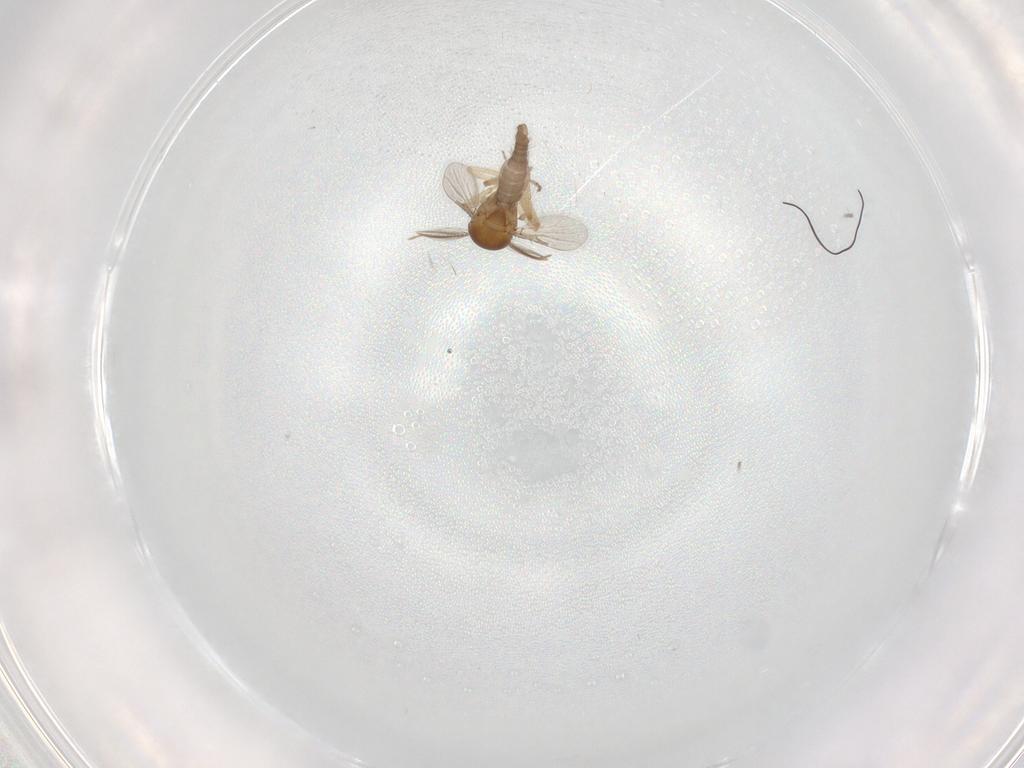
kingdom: Animalia
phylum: Arthropoda
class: Insecta
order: Diptera
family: Ceratopogonidae
